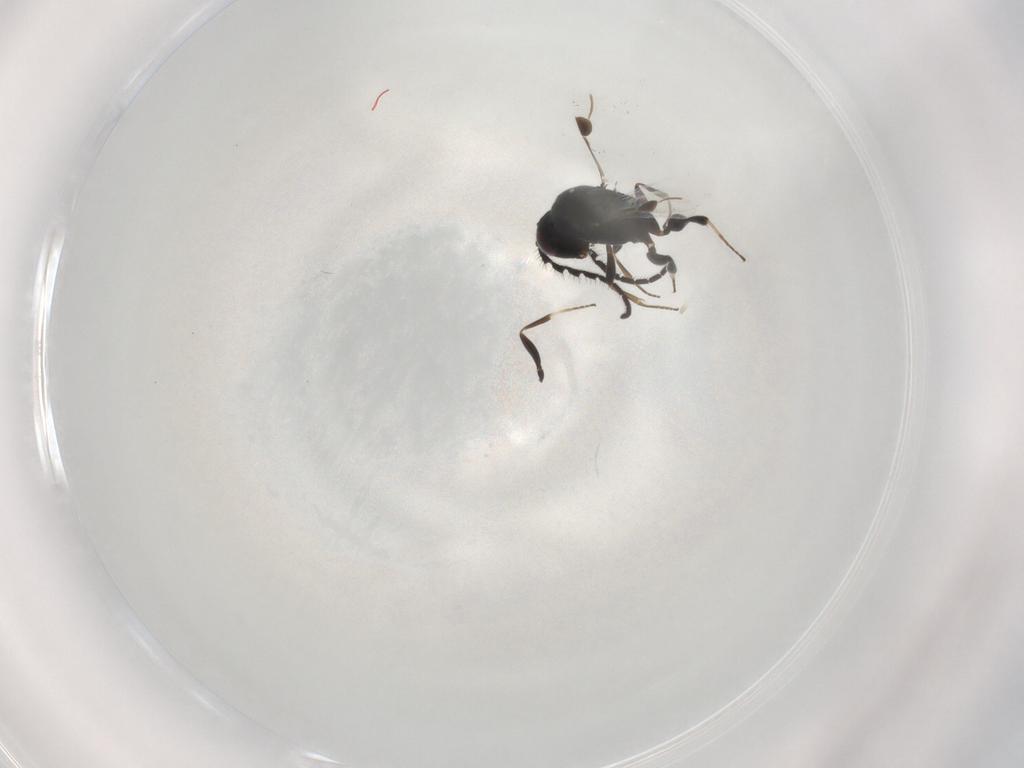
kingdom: Animalia
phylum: Arthropoda
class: Insecta
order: Hymenoptera
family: Megaspilidae
